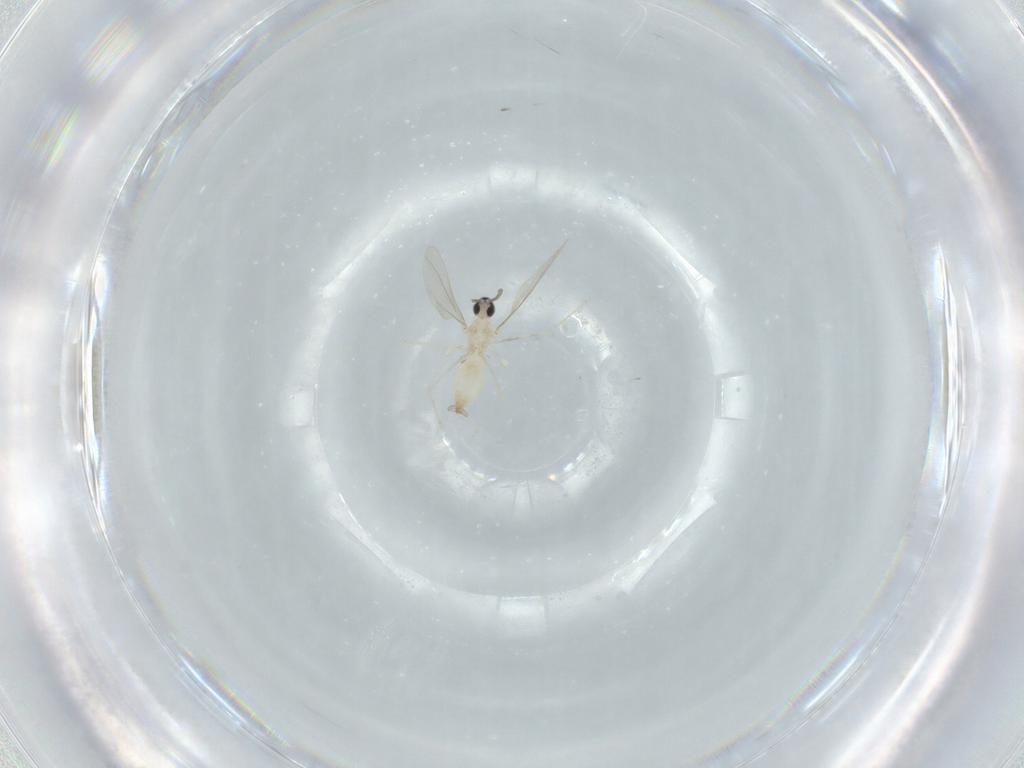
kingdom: Animalia
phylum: Arthropoda
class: Insecta
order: Diptera
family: Cecidomyiidae
